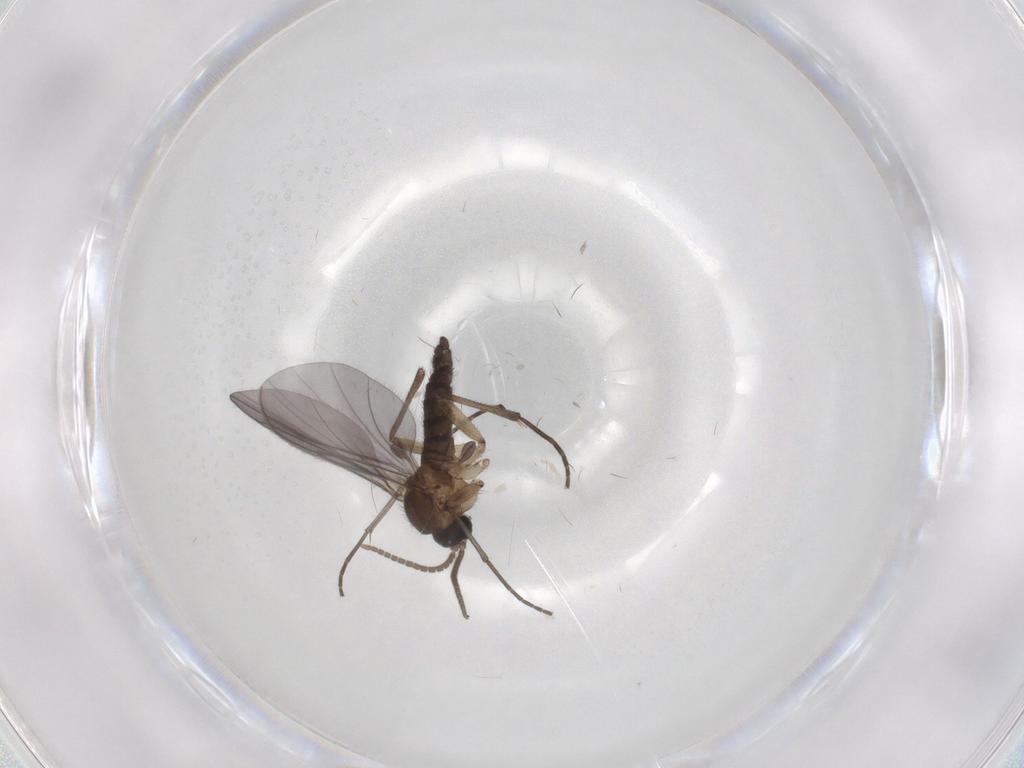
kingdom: Animalia
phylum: Arthropoda
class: Insecta
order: Diptera
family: Sciaridae
